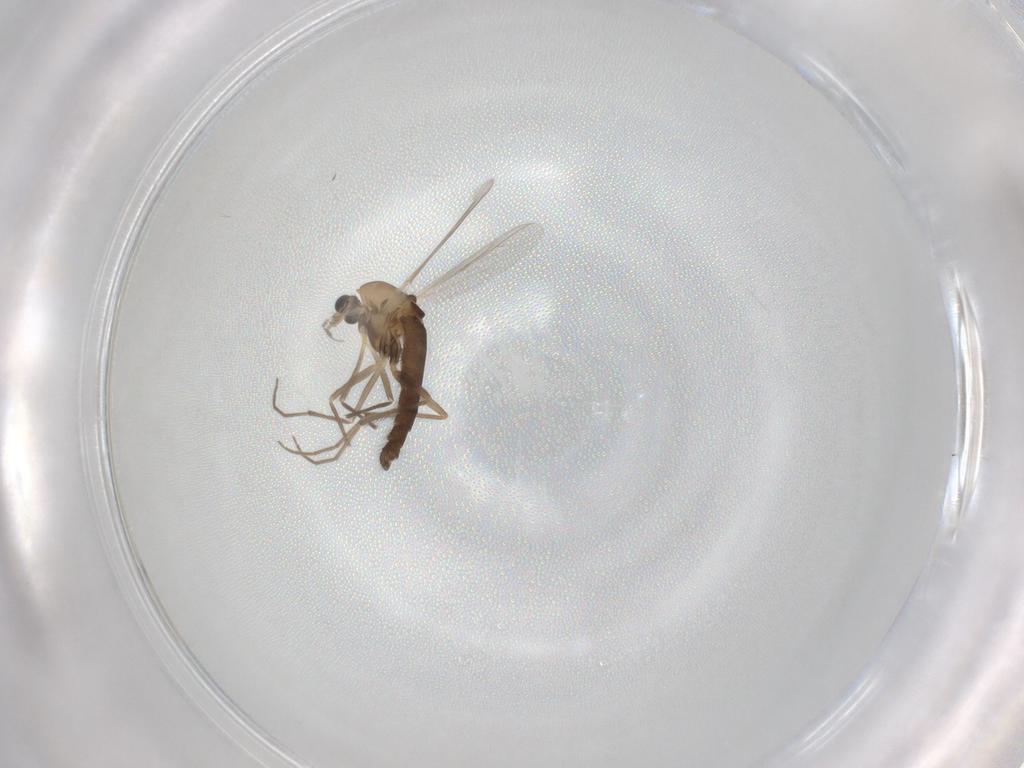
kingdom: Animalia
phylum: Arthropoda
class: Insecta
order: Diptera
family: Chironomidae
